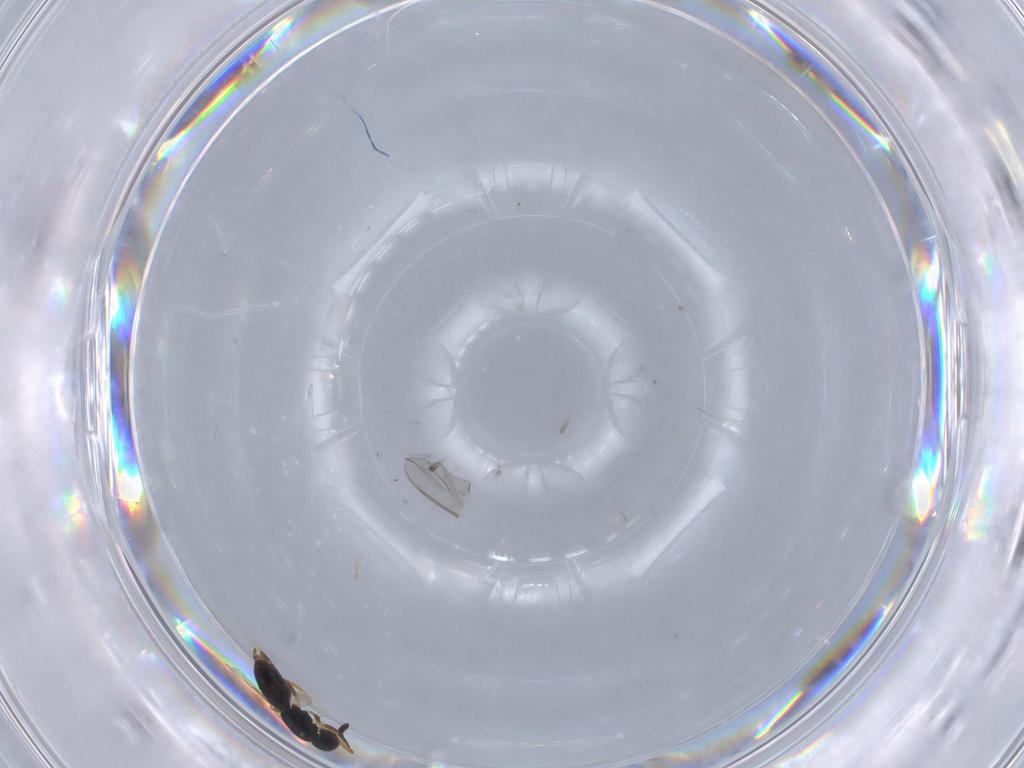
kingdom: Animalia
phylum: Arthropoda
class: Insecta
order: Hymenoptera
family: Ceraphronidae
